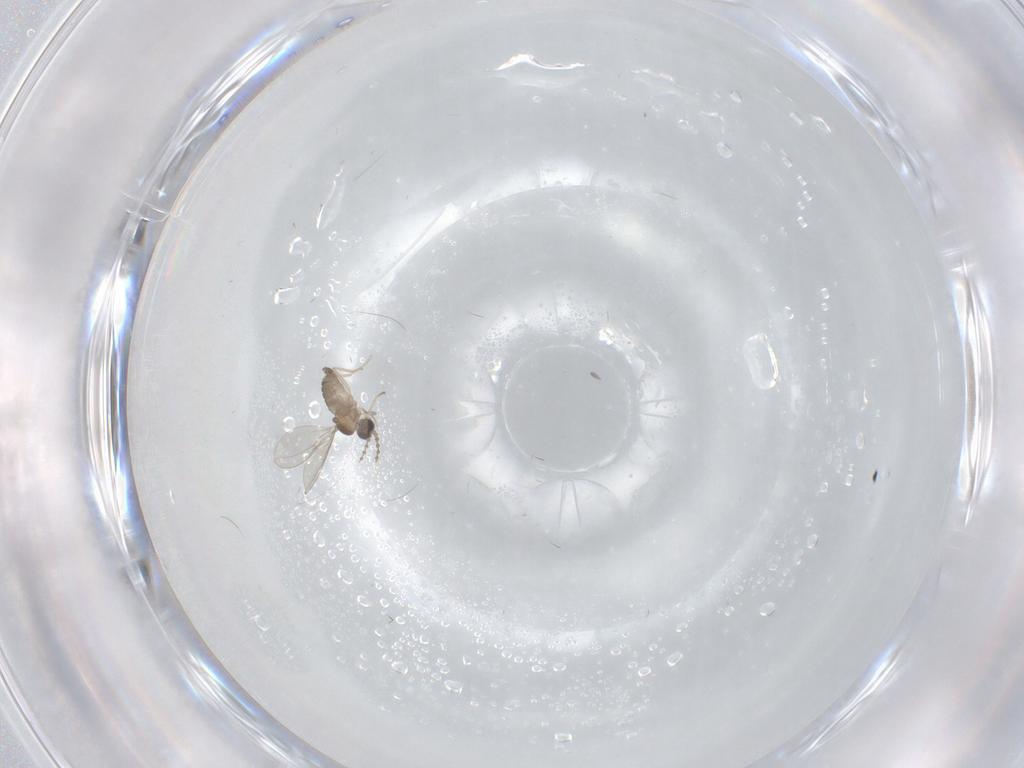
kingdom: Animalia
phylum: Arthropoda
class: Insecta
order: Diptera
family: Cecidomyiidae
